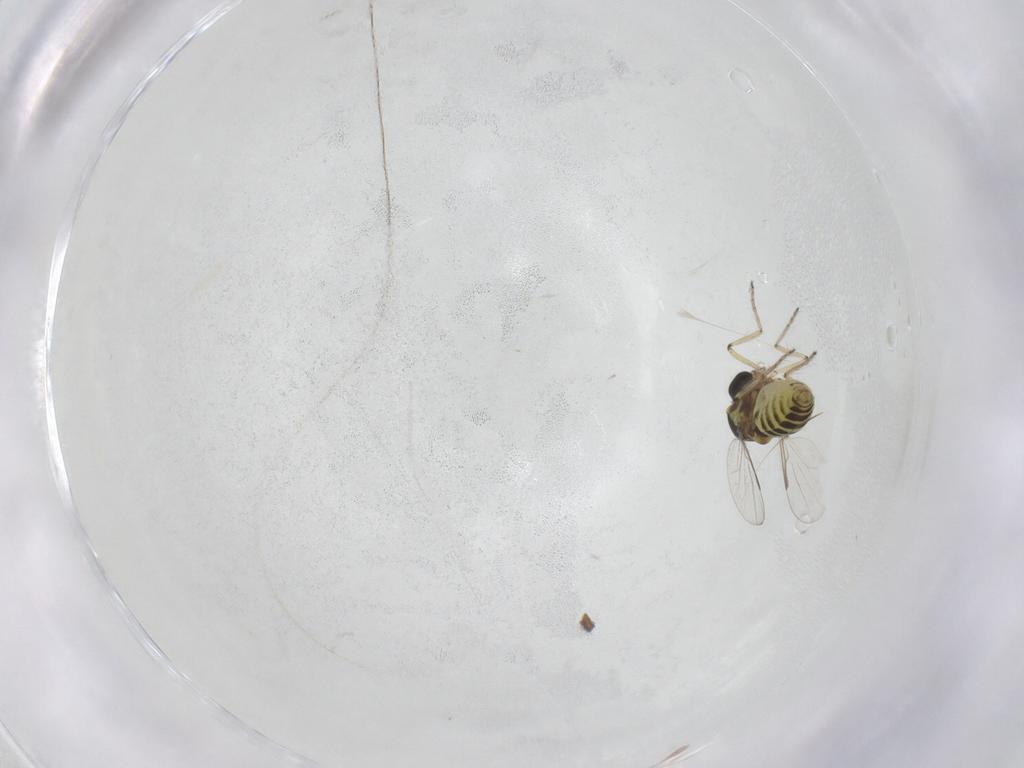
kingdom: Animalia
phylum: Arthropoda
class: Insecta
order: Diptera
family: Ceratopogonidae
